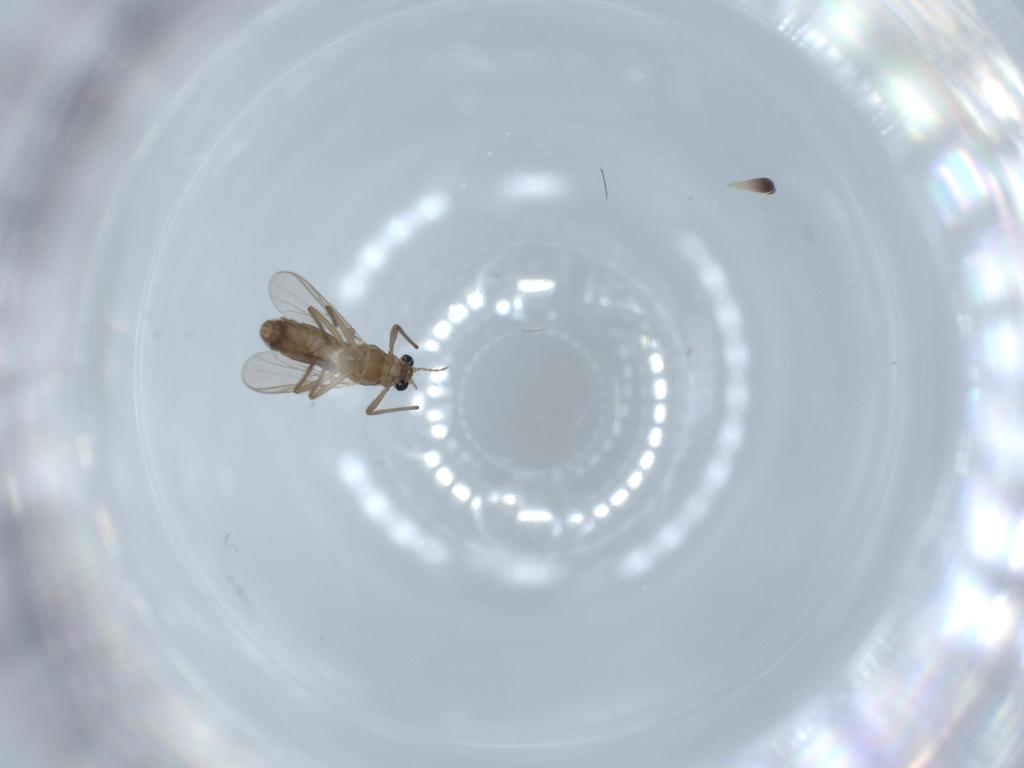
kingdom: Animalia
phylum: Arthropoda
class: Insecta
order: Diptera
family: Chironomidae
